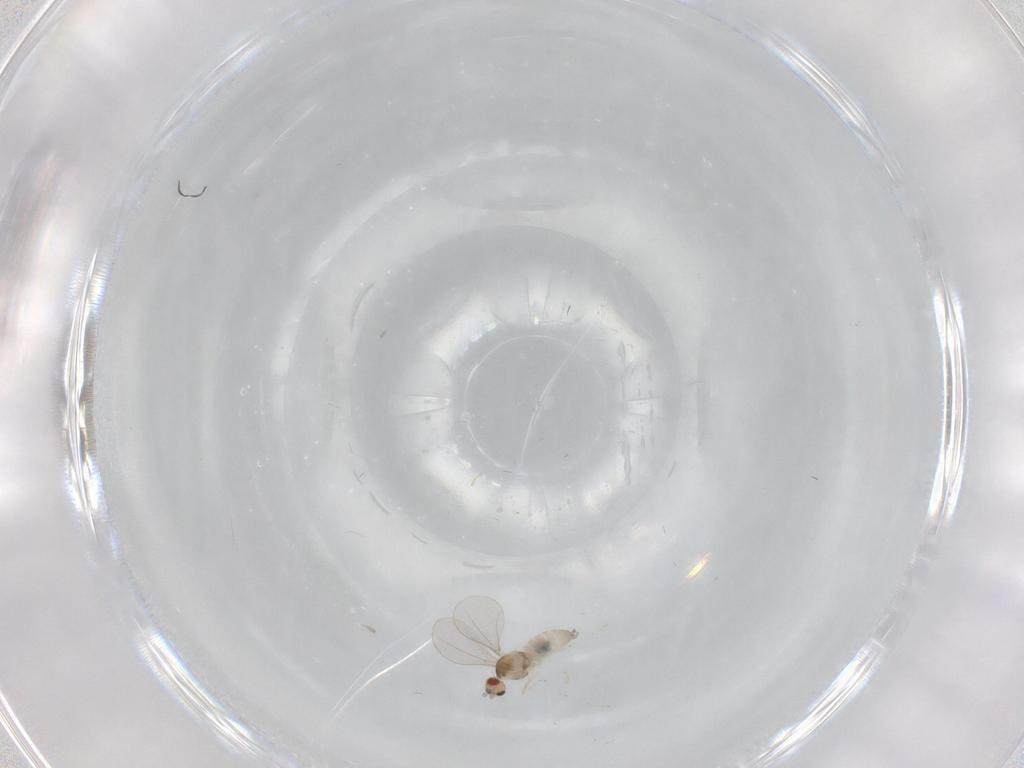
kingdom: Animalia
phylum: Arthropoda
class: Insecta
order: Diptera
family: Cecidomyiidae
